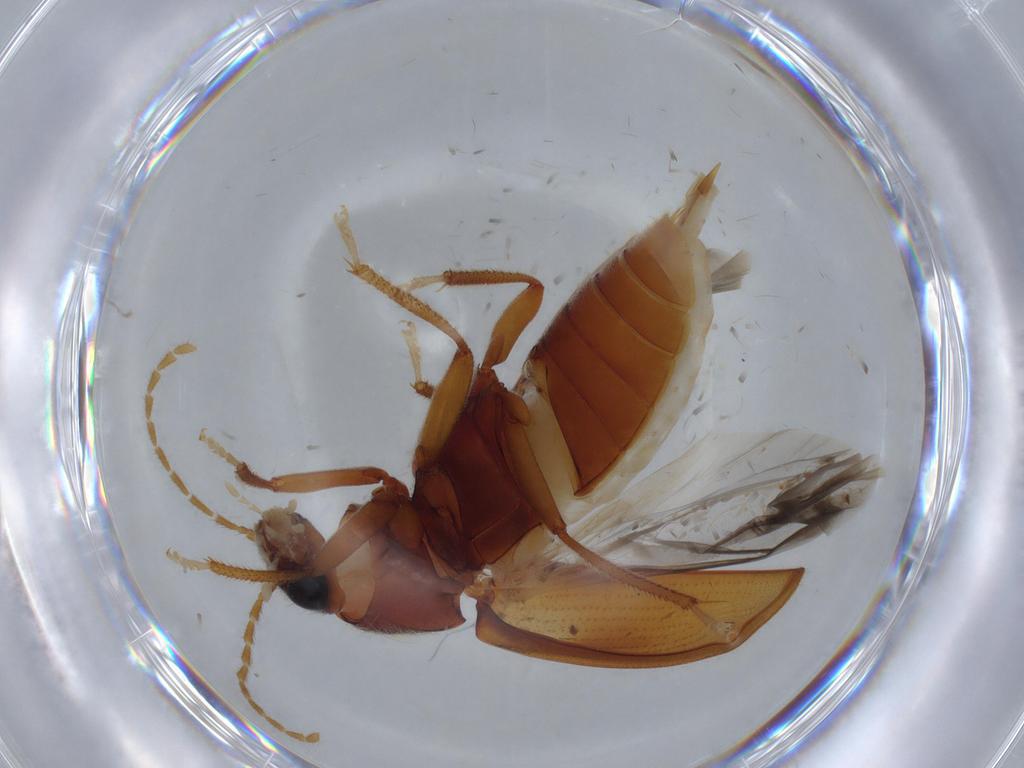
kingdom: Animalia
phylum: Arthropoda
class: Insecta
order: Coleoptera
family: Ptilodactylidae
